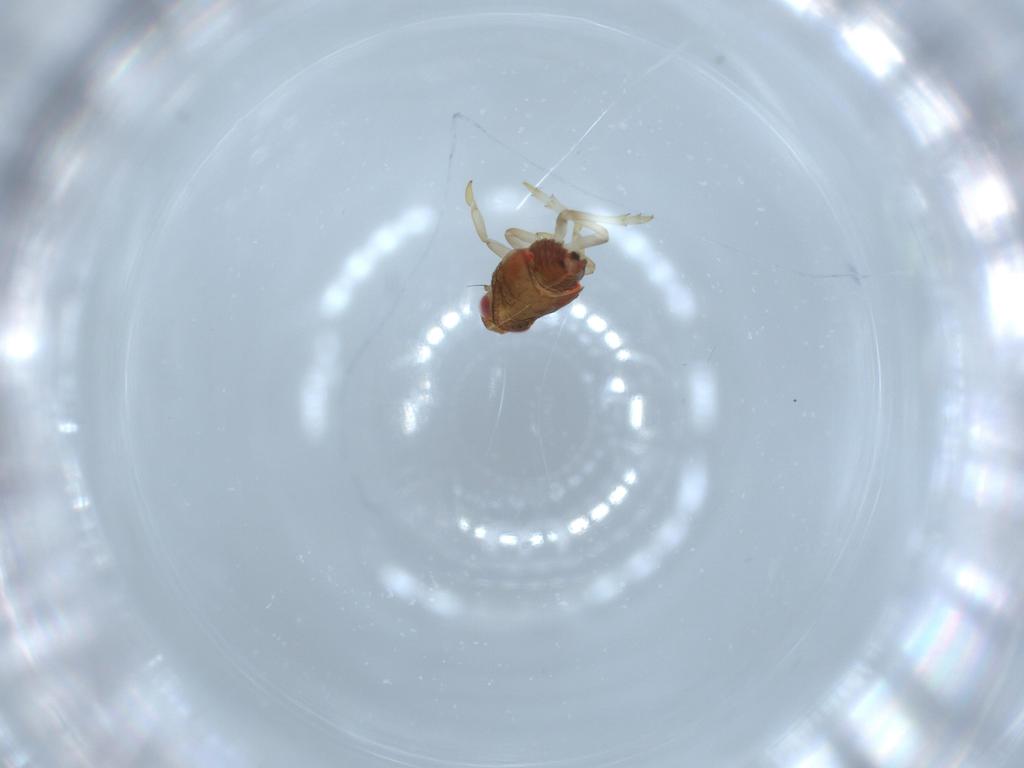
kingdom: Animalia
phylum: Arthropoda
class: Insecta
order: Hemiptera
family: Issidae
